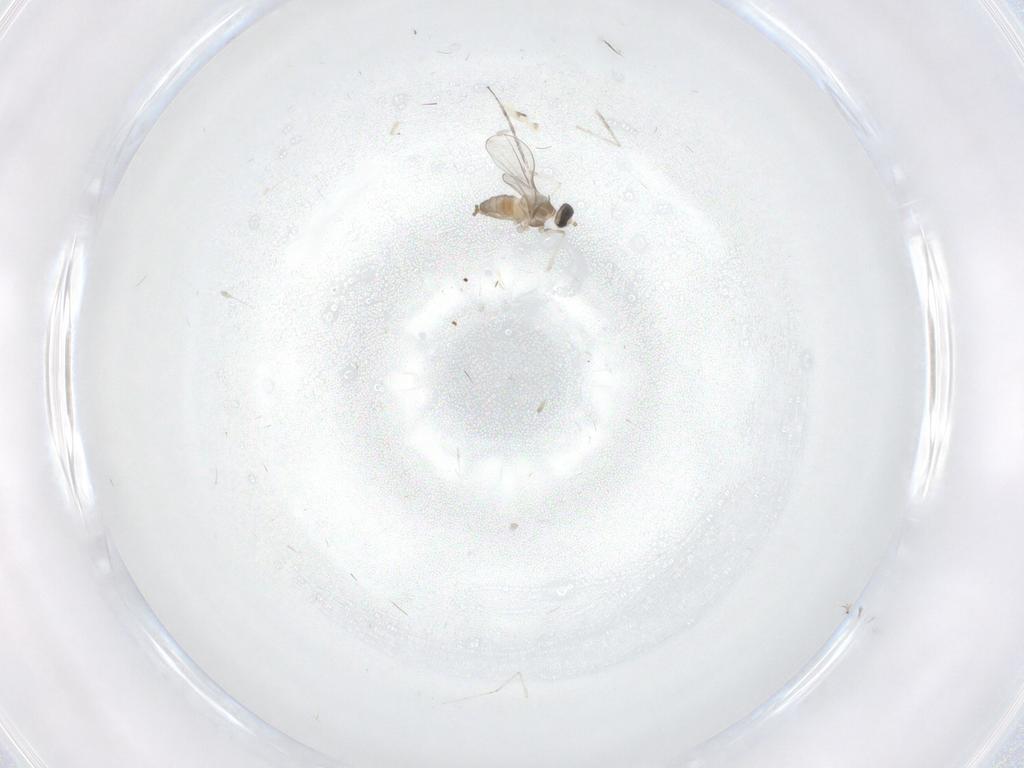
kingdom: Animalia
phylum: Arthropoda
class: Insecta
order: Diptera
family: Cecidomyiidae
